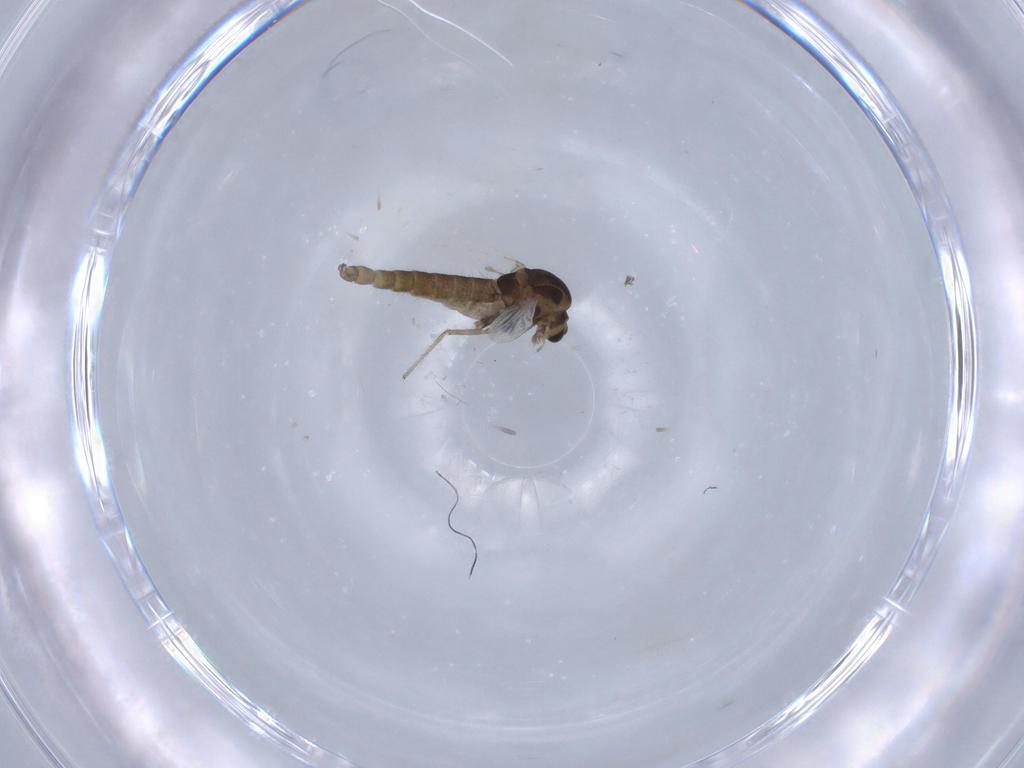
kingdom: Animalia
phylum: Arthropoda
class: Insecta
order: Diptera
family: Chironomidae
